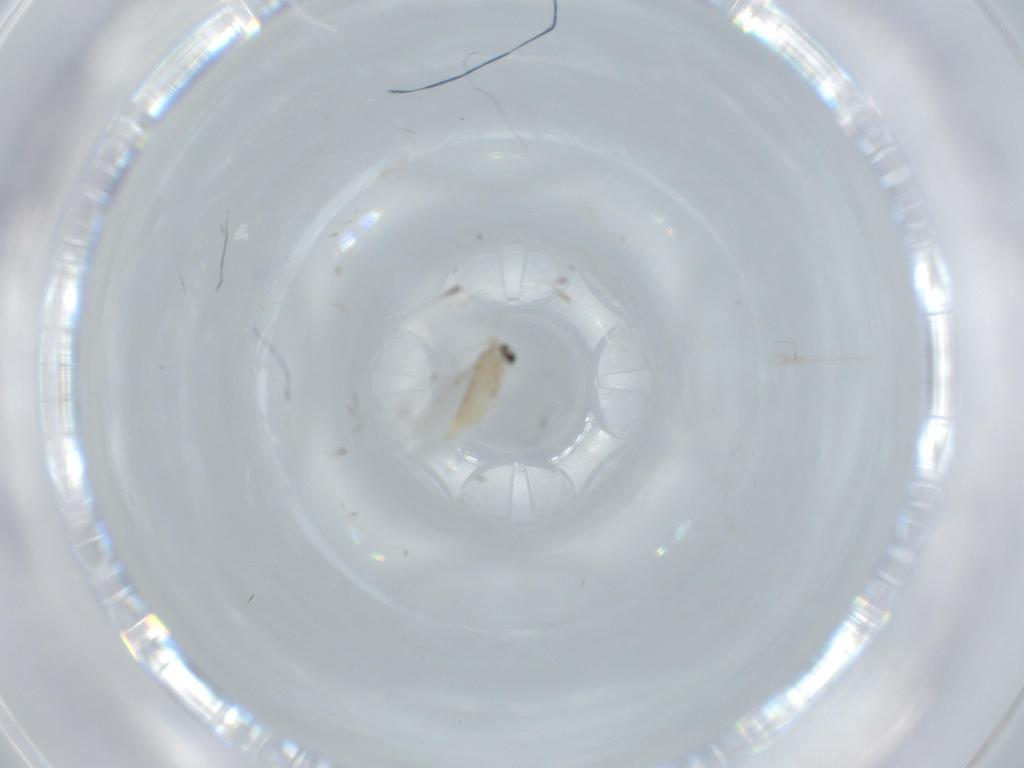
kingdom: Animalia
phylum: Arthropoda
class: Insecta
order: Diptera
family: Cecidomyiidae
